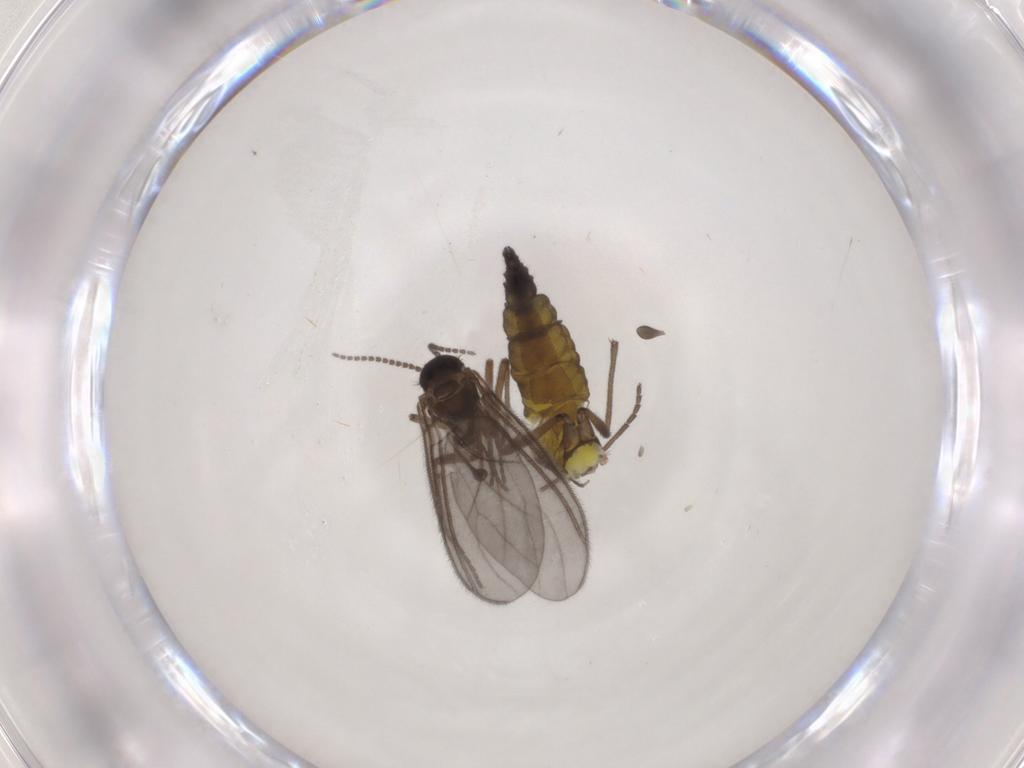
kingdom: Animalia
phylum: Arthropoda
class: Insecta
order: Diptera
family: Sciaridae
